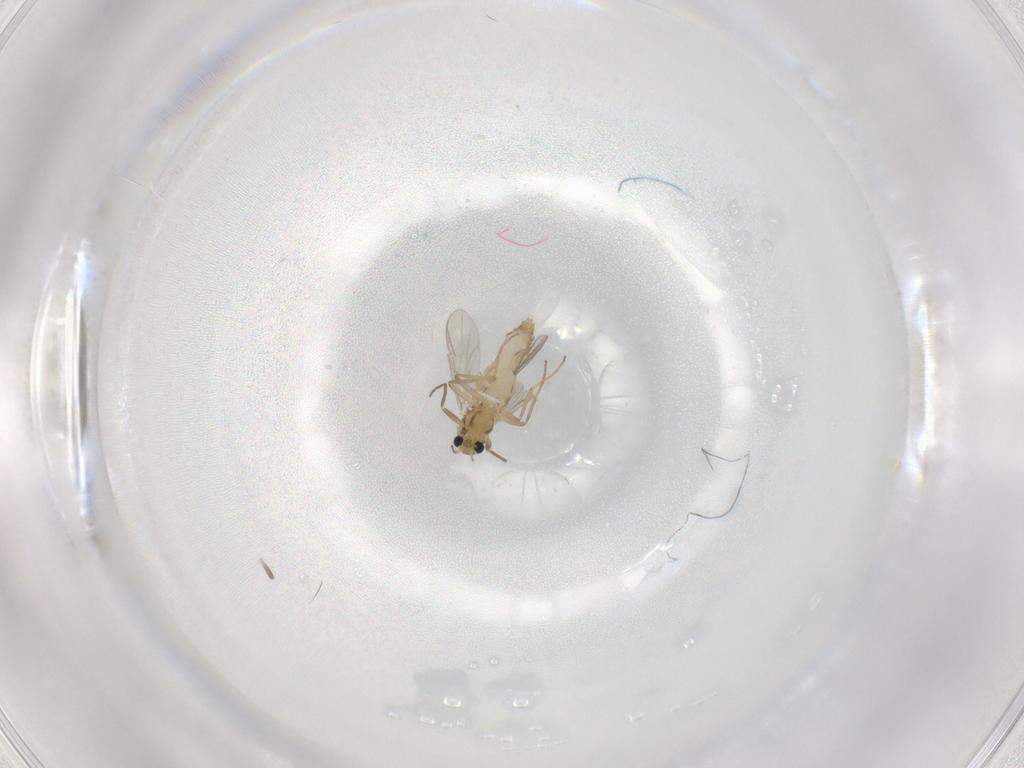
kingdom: Animalia
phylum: Arthropoda
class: Insecta
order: Diptera
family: Chironomidae
